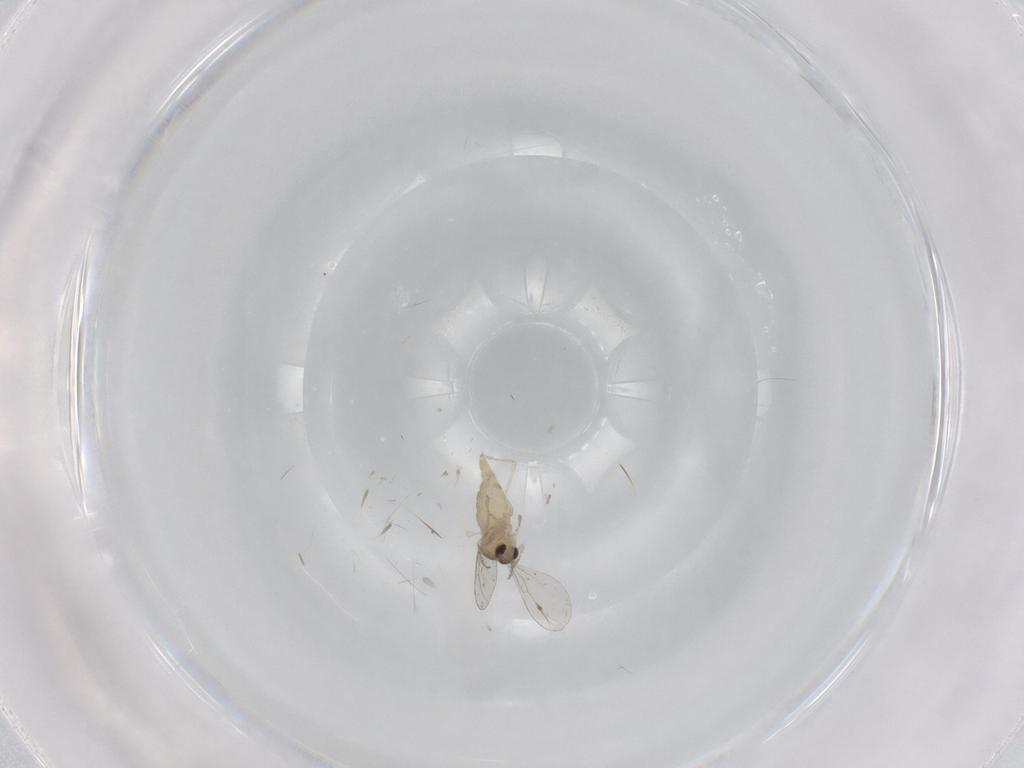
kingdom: Animalia
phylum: Arthropoda
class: Insecta
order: Diptera
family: Cecidomyiidae
